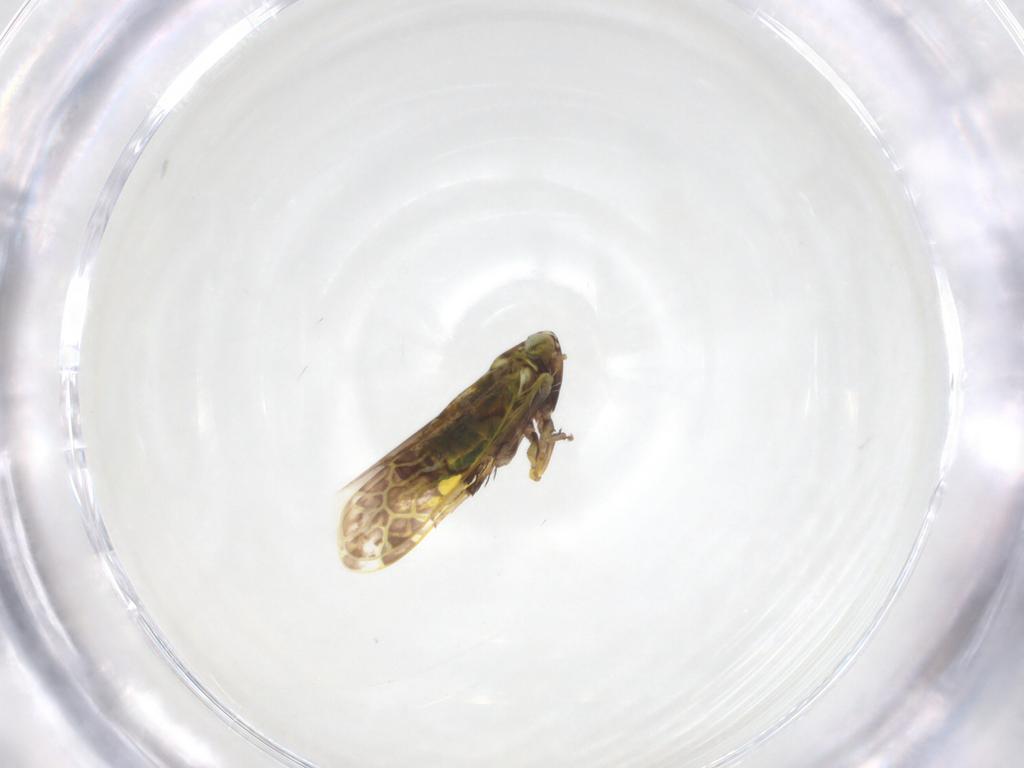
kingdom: Animalia
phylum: Arthropoda
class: Insecta
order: Hemiptera
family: Cicadellidae
